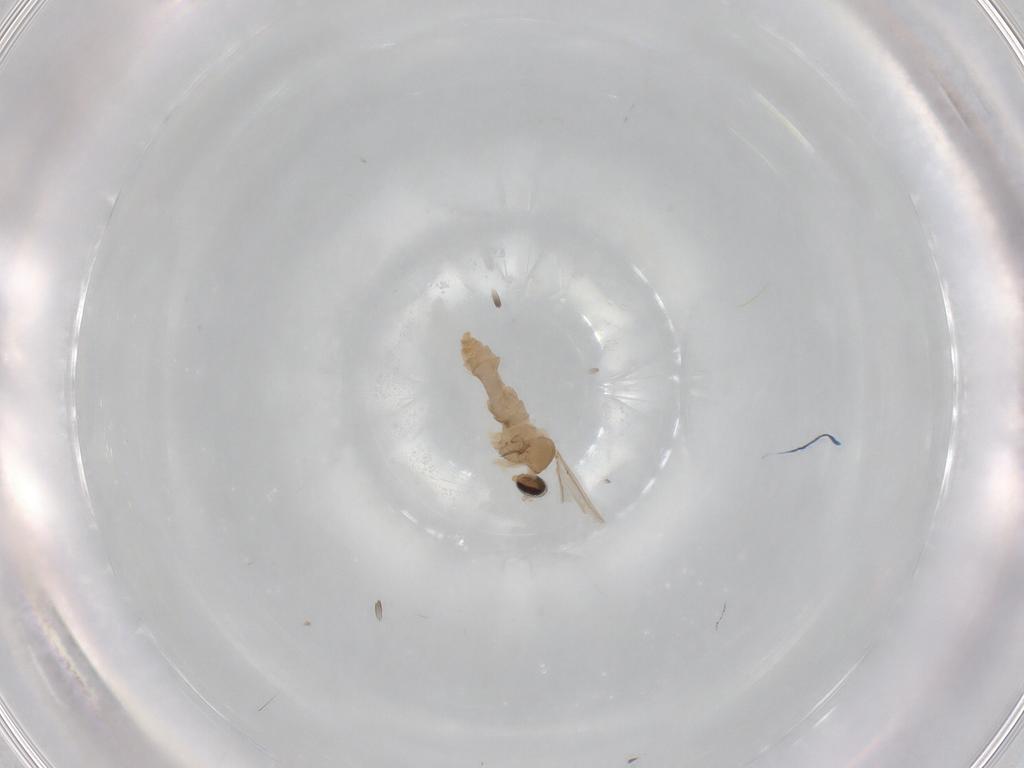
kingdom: Animalia
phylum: Arthropoda
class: Insecta
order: Diptera
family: Cecidomyiidae
